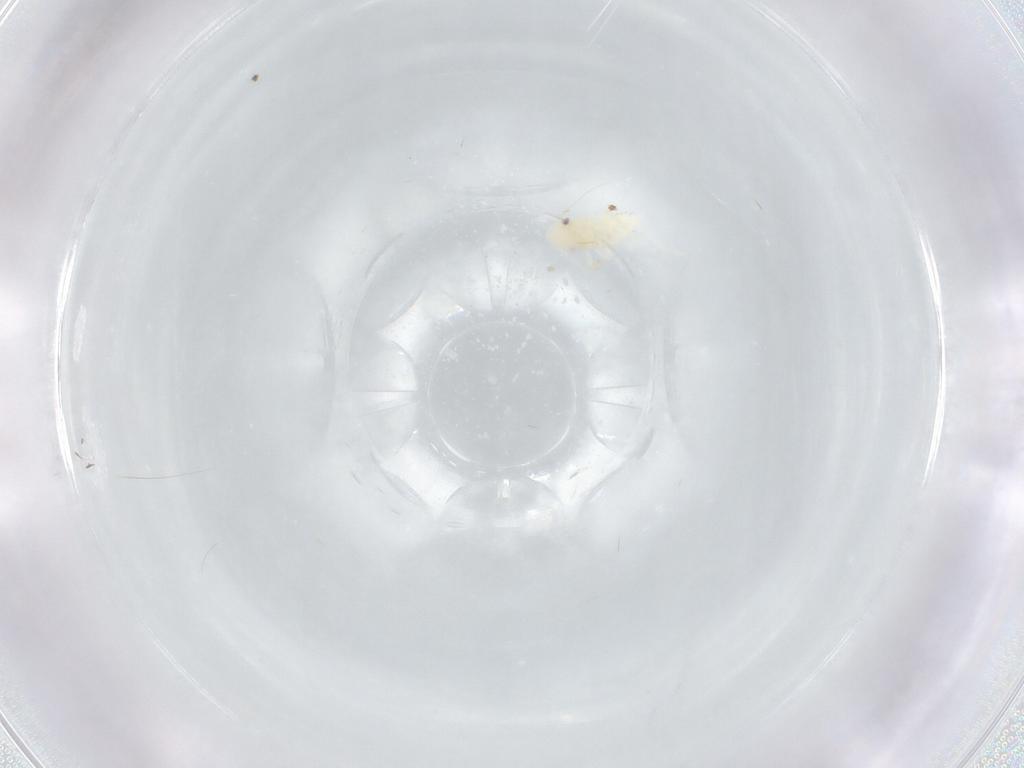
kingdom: Animalia
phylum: Arthropoda
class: Insecta
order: Hemiptera
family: Cicadellidae
